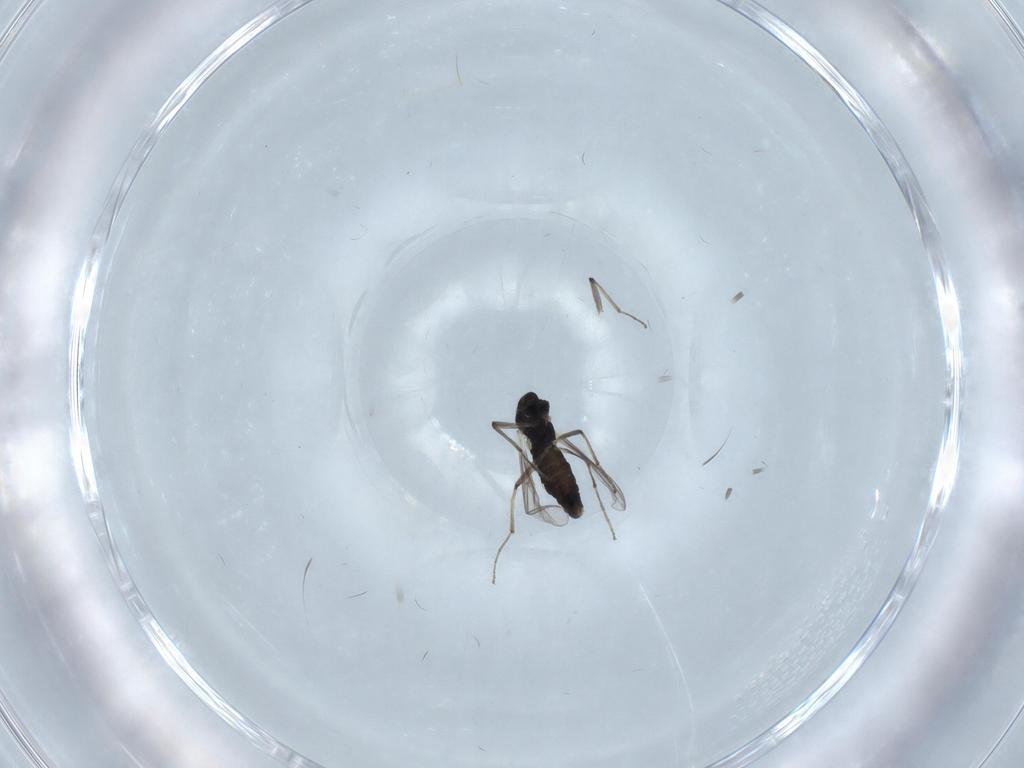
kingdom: Animalia
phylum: Arthropoda
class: Insecta
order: Diptera
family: Chironomidae
